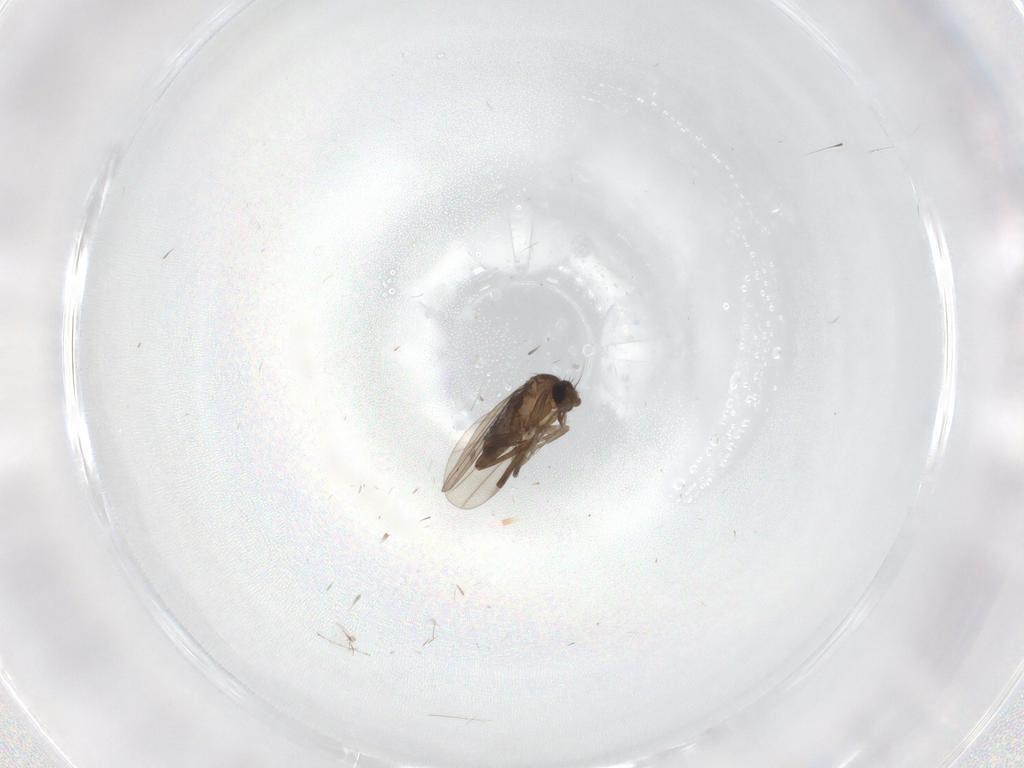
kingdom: Animalia
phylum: Arthropoda
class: Insecta
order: Diptera
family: Cecidomyiidae
